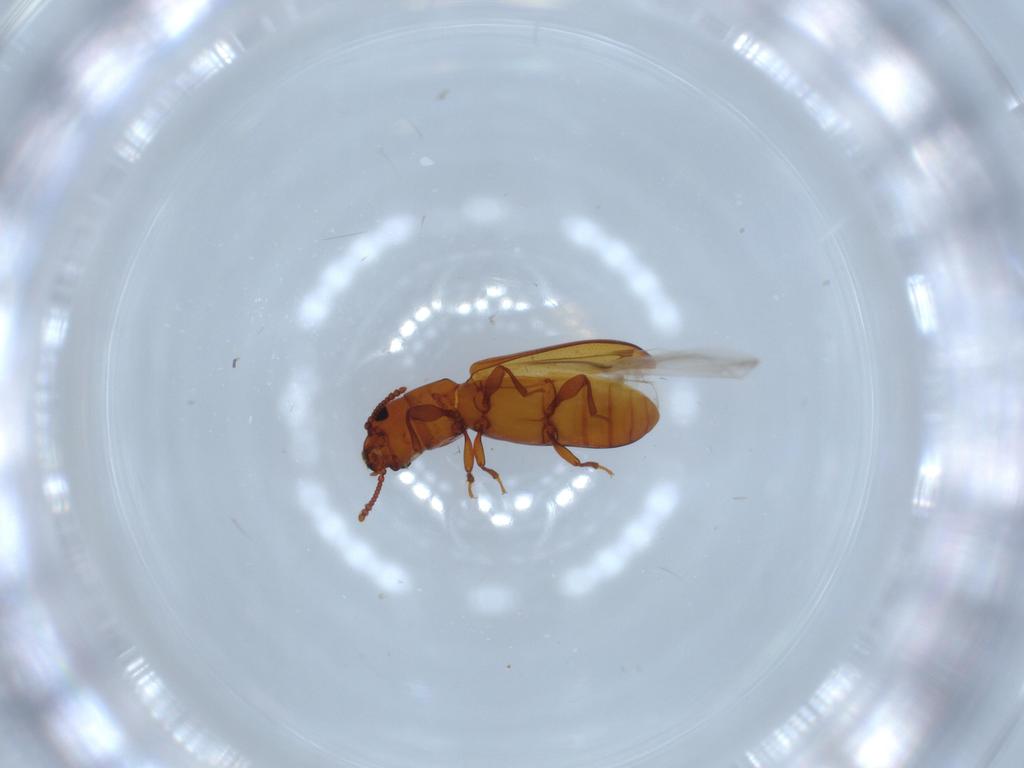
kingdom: Animalia
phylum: Arthropoda
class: Insecta
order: Coleoptera
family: Salpingidae
